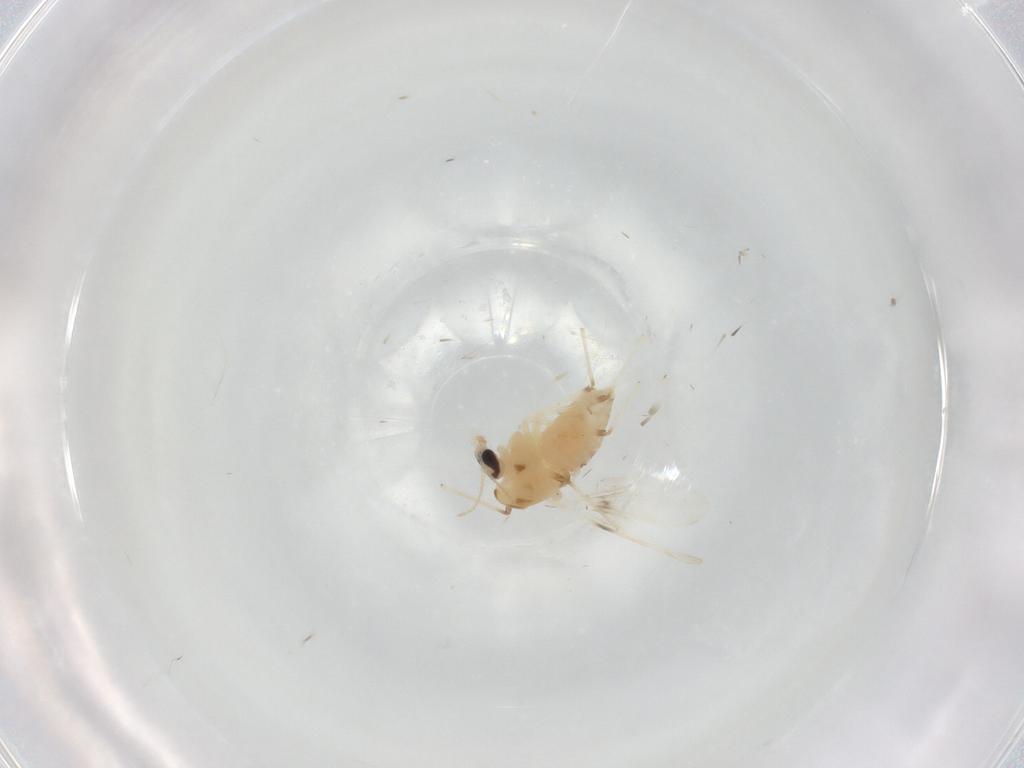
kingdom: Animalia
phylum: Arthropoda
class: Insecta
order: Diptera
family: Chironomidae
